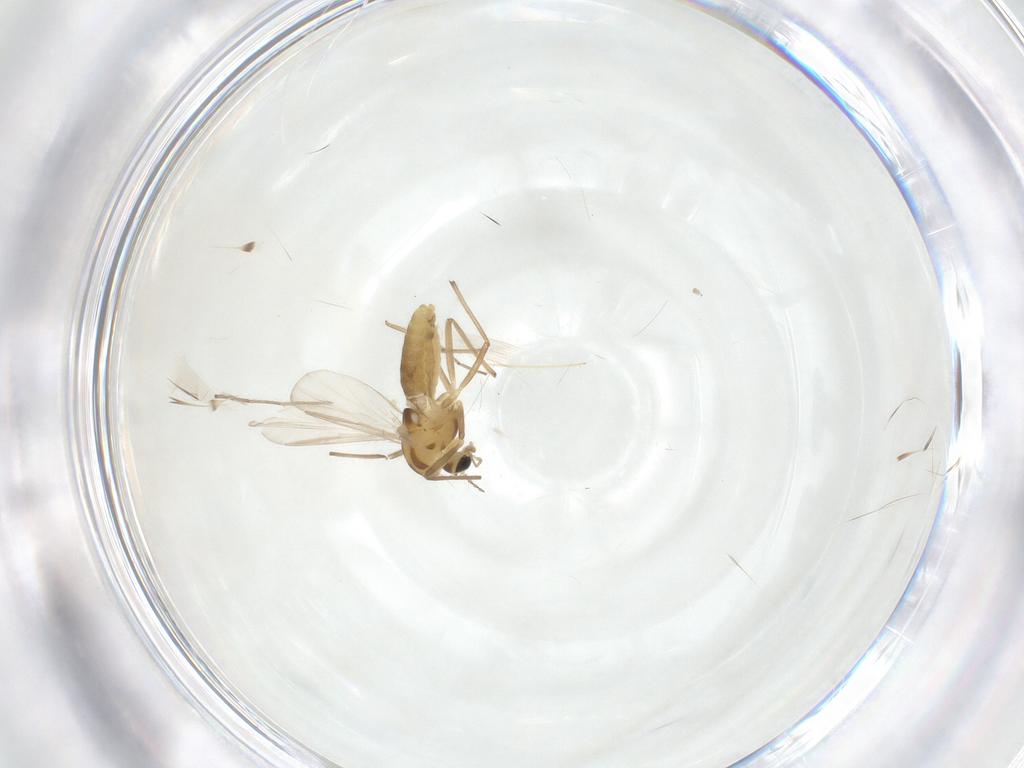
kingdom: Animalia
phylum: Arthropoda
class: Insecta
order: Diptera
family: Chironomidae
